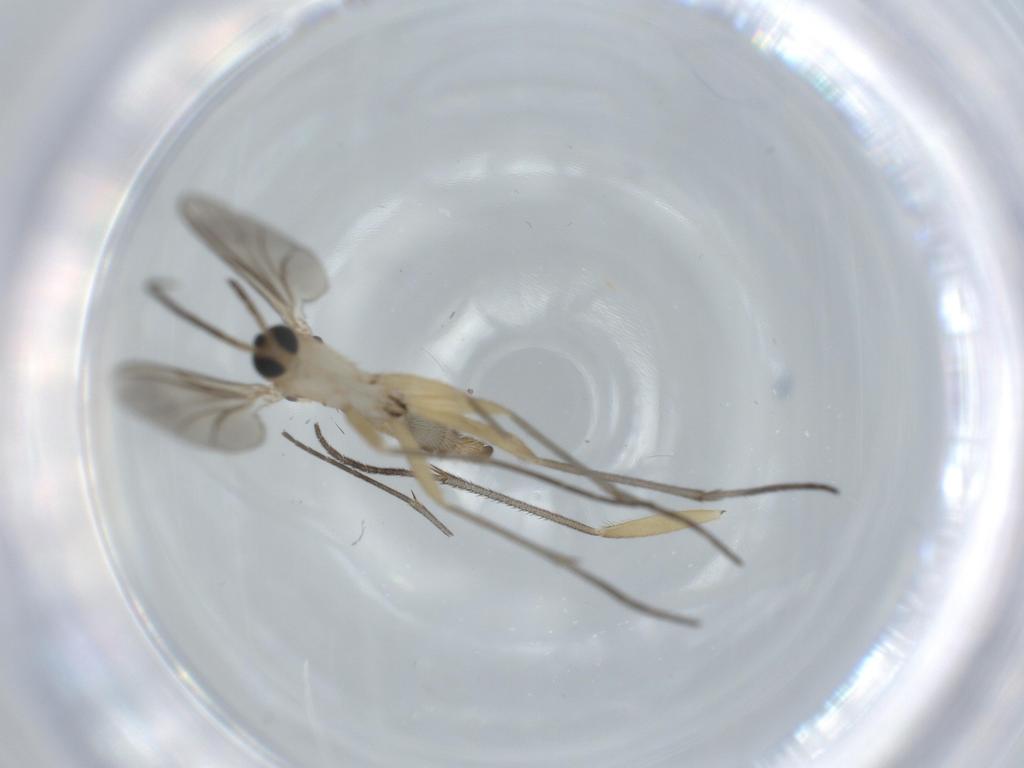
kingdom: Animalia
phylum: Arthropoda
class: Insecta
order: Diptera
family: Sciaridae
